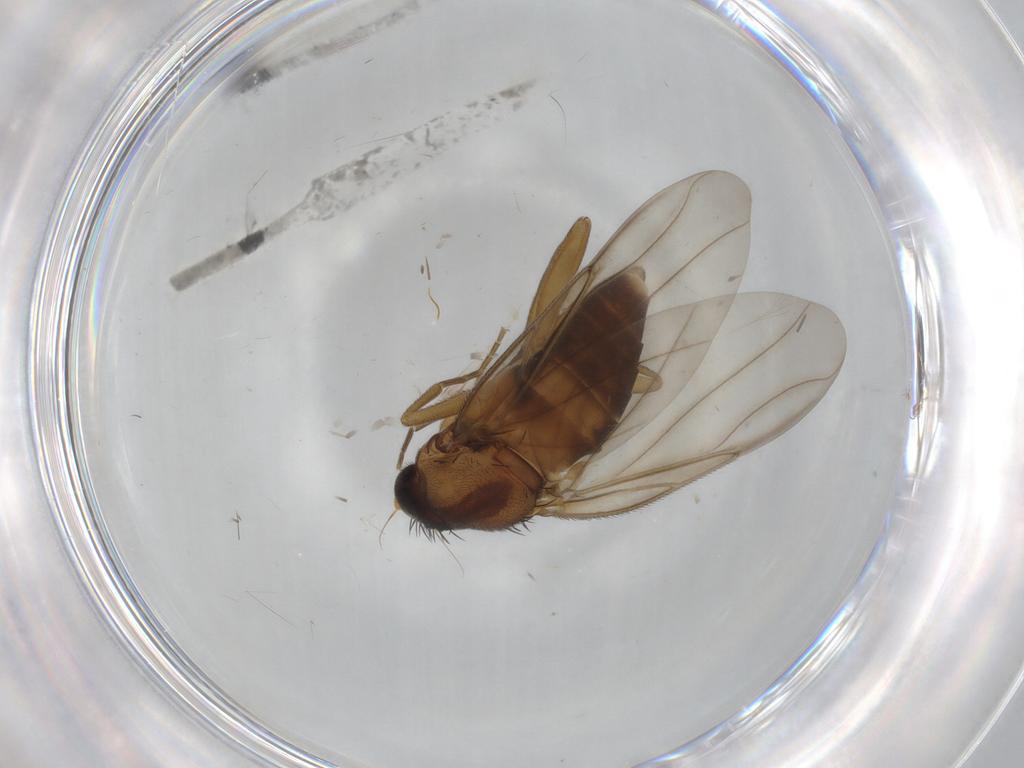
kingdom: Animalia
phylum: Arthropoda
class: Insecta
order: Diptera
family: Phoridae
